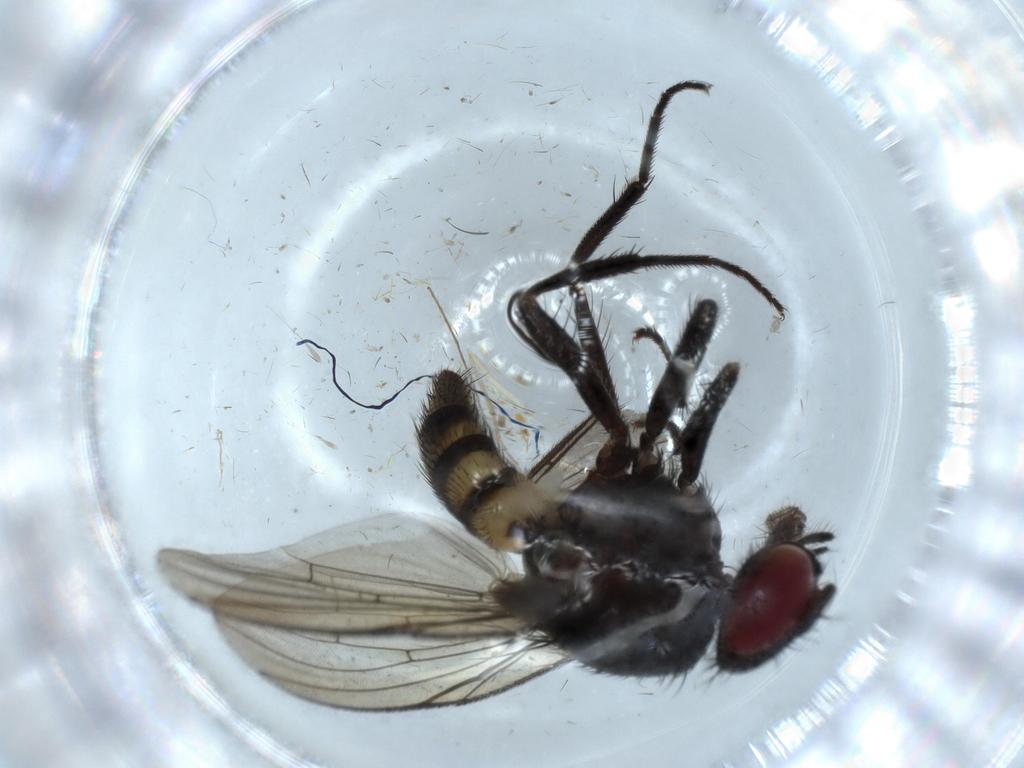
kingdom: Animalia
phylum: Arthropoda
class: Insecta
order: Diptera
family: Muscidae
